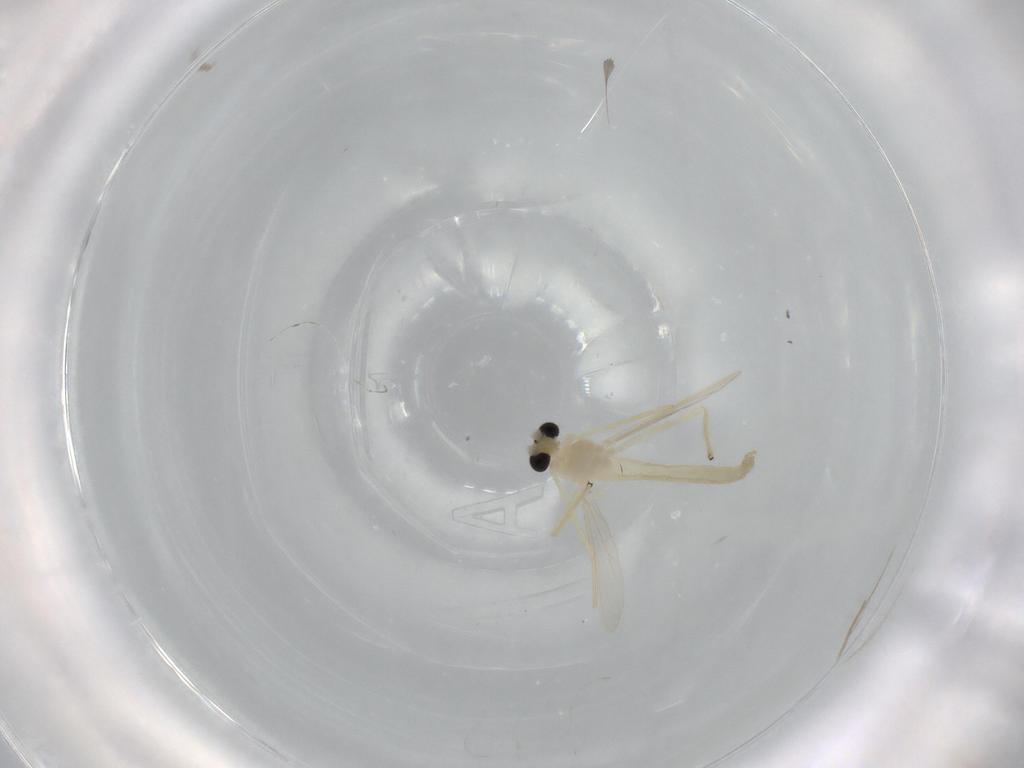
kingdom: Animalia
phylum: Arthropoda
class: Insecta
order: Diptera
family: Chironomidae
